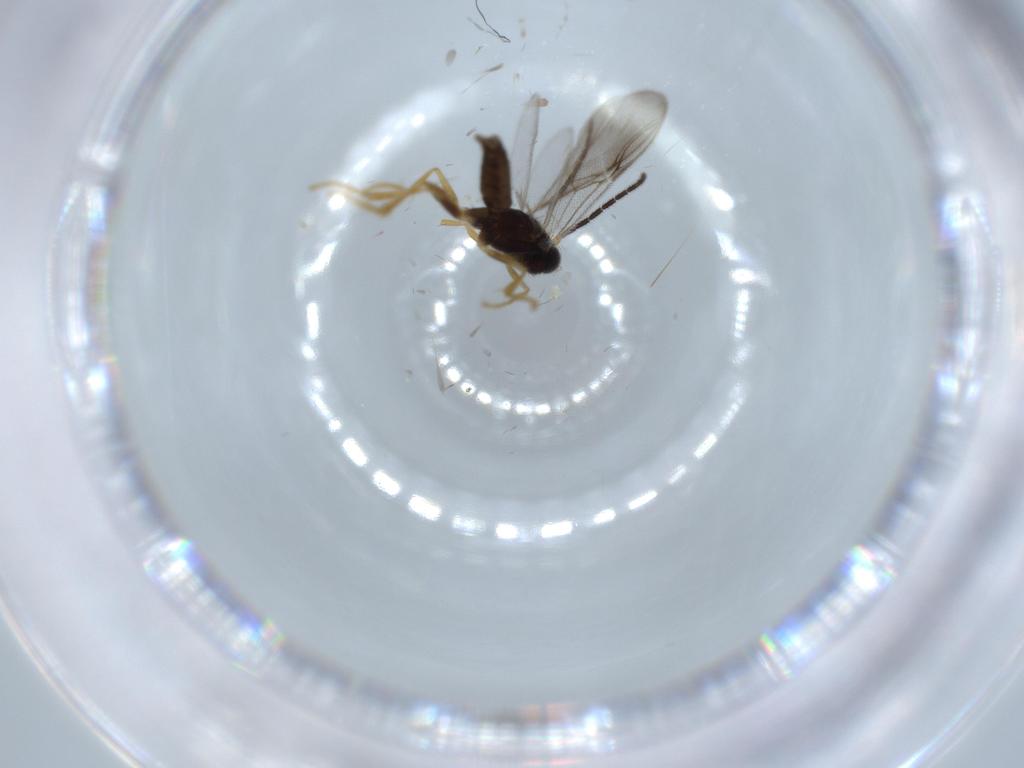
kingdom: Animalia
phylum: Arthropoda
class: Insecta
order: Hymenoptera
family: Dryinidae
